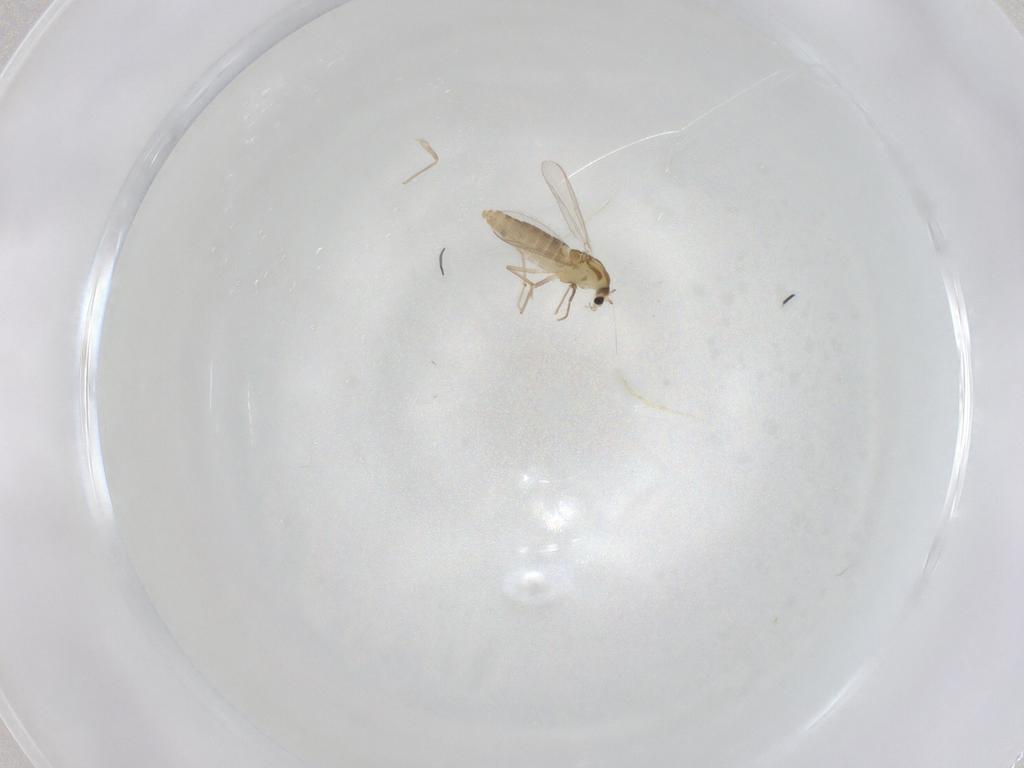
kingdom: Animalia
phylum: Arthropoda
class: Insecta
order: Diptera
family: Chironomidae
